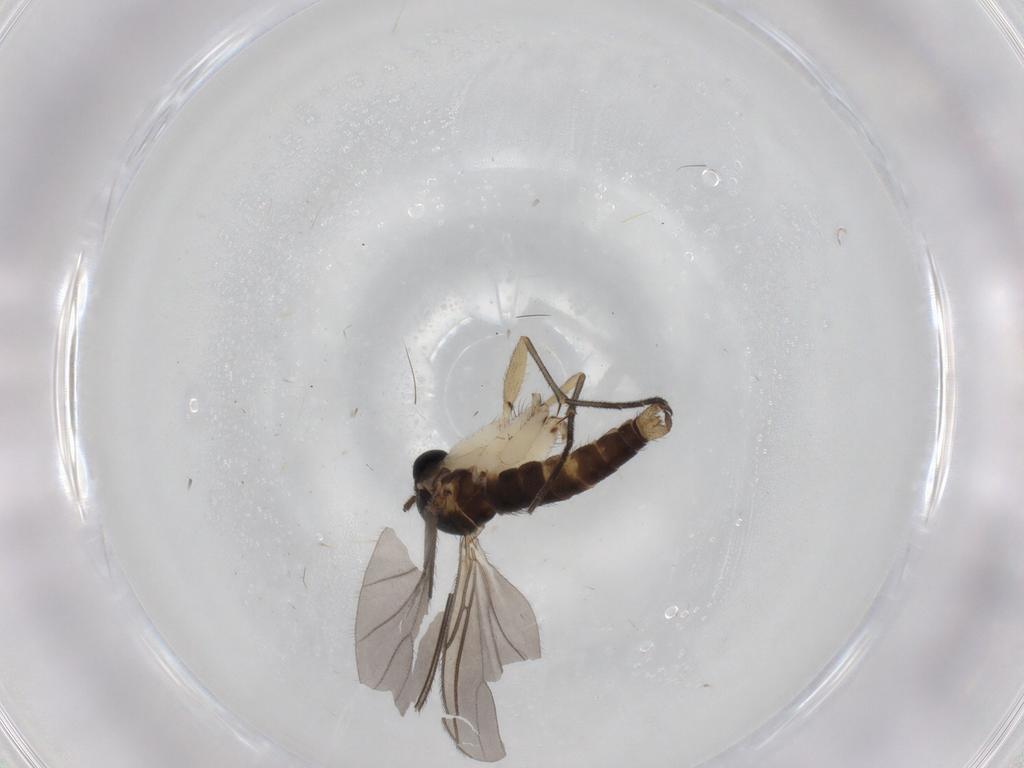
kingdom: Animalia
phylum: Arthropoda
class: Insecta
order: Diptera
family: Sciaridae
